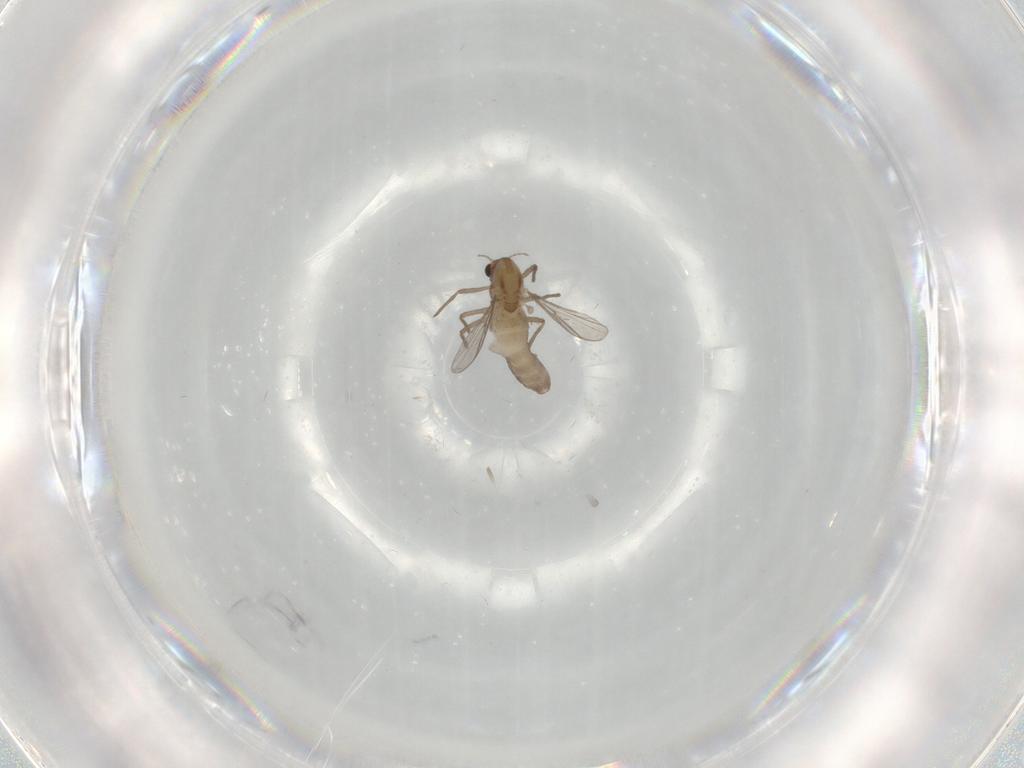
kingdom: Animalia
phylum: Arthropoda
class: Insecta
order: Diptera
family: Chironomidae
